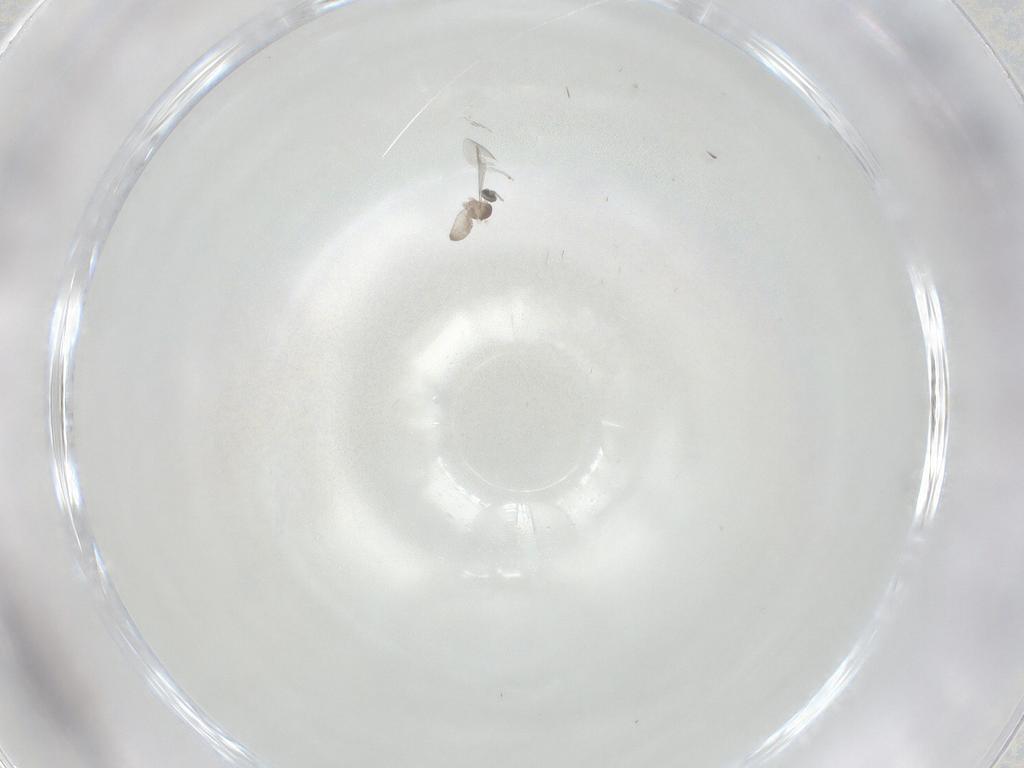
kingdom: Animalia
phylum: Arthropoda
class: Insecta
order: Diptera
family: Cecidomyiidae
